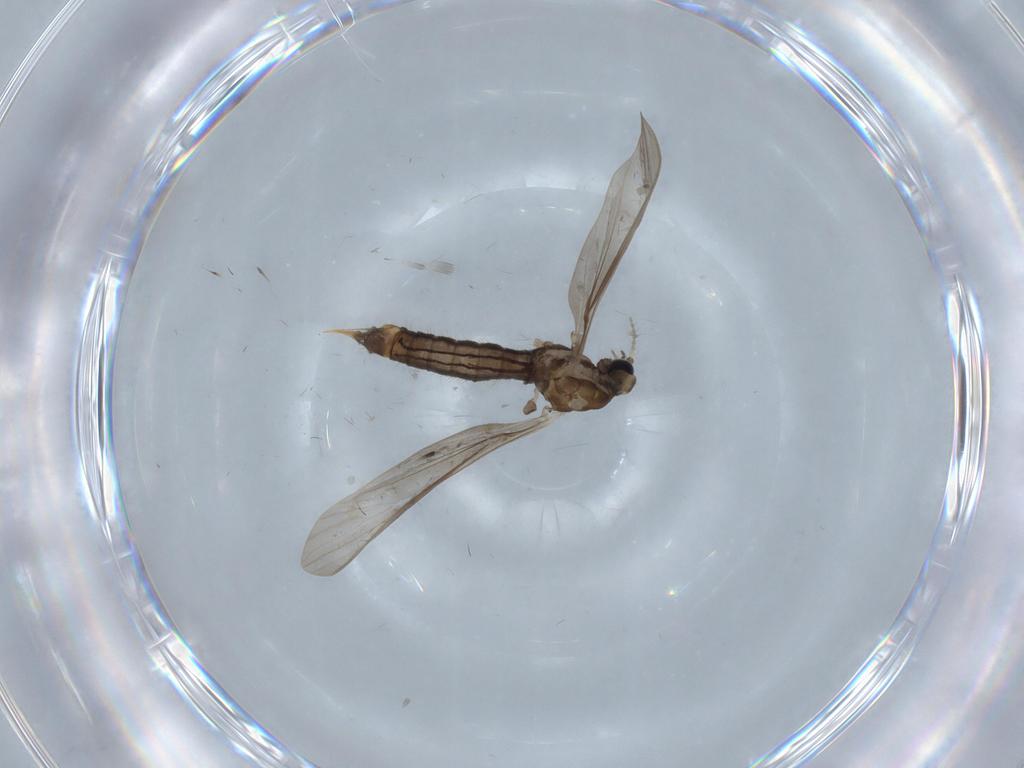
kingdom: Animalia
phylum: Arthropoda
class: Insecta
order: Diptera
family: Limoniidae
